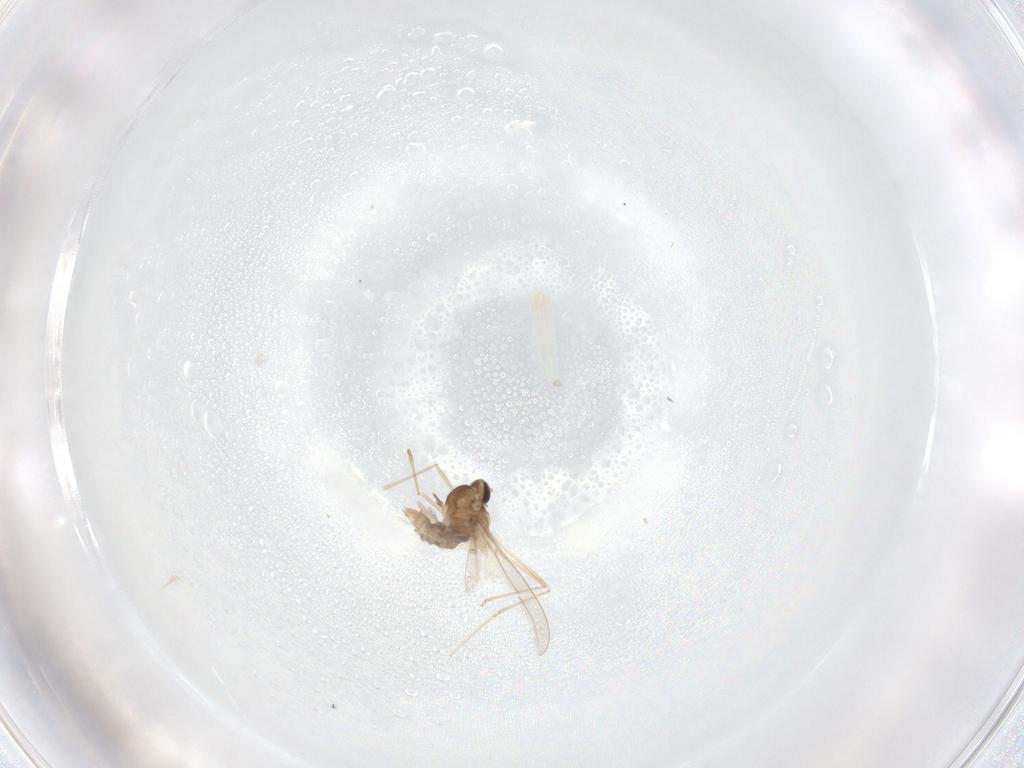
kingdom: Animalia
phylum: Arthropoda
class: Insecta
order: Diptera
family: Cecidomyiidae
